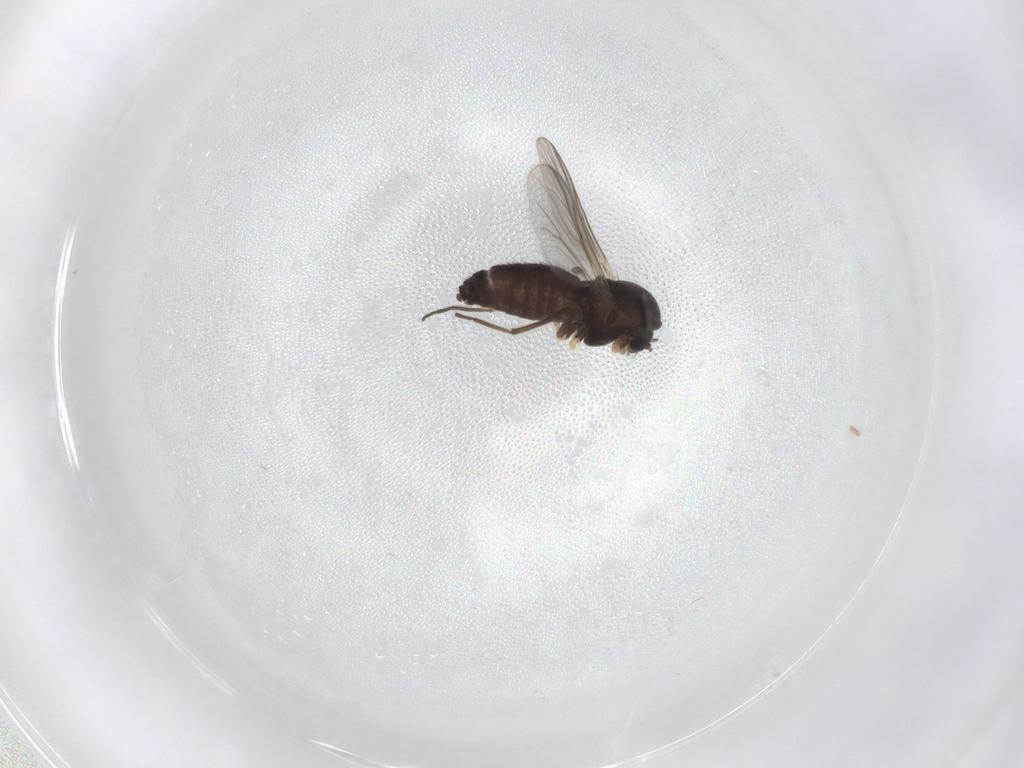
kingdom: Animalia
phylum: Arthropoda
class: Insecta
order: Diptera
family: Chironomidae
